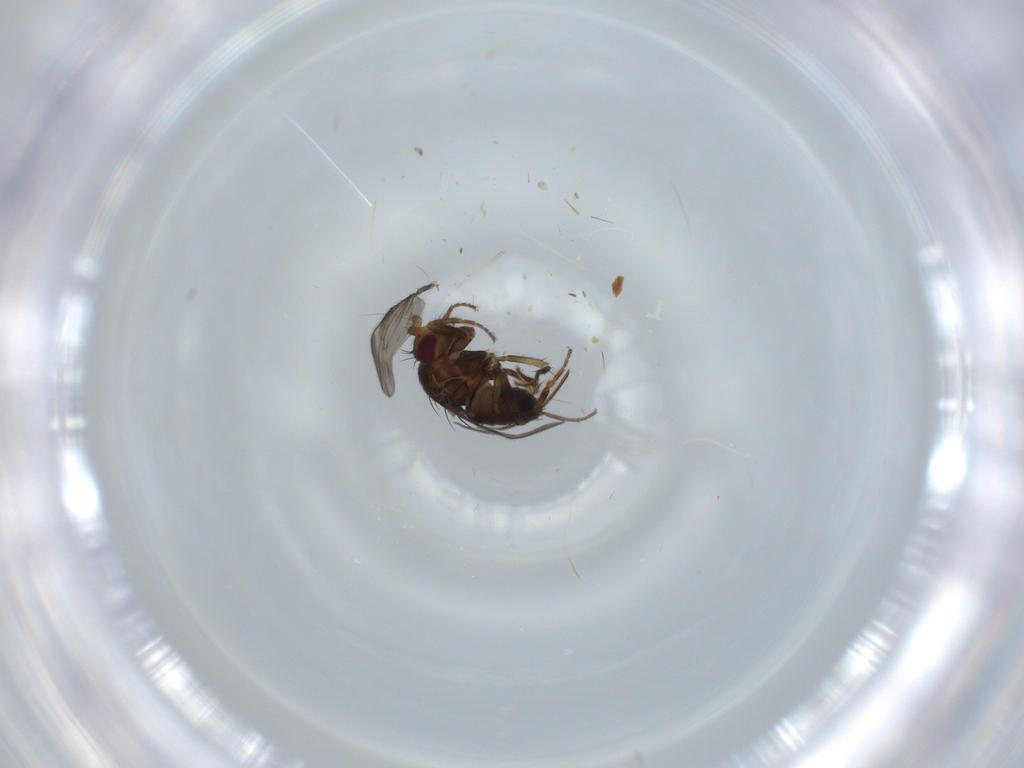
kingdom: Animalia
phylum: Arthropoda
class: Insecta
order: Diptera
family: Sphaeroceridae
